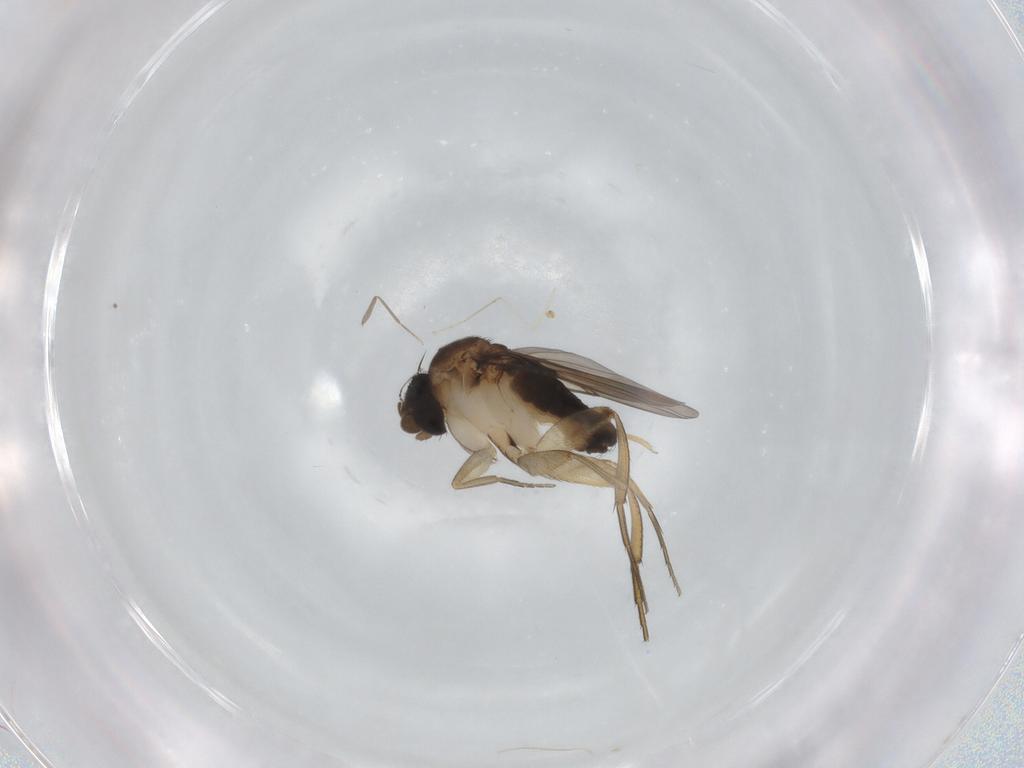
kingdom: Animalia
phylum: Arthropoda
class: Insecta
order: Diptera
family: Phoridae
